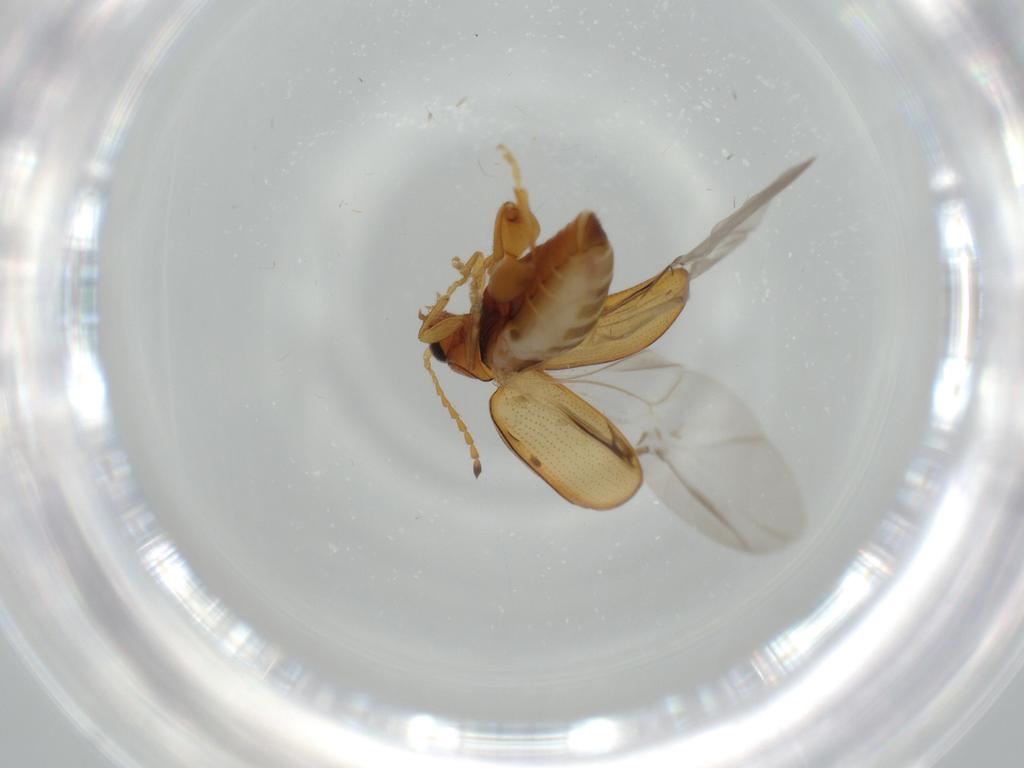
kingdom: Animalia
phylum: Arthropoda
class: Insecta
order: Coleoptera
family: Chrysomelidae
